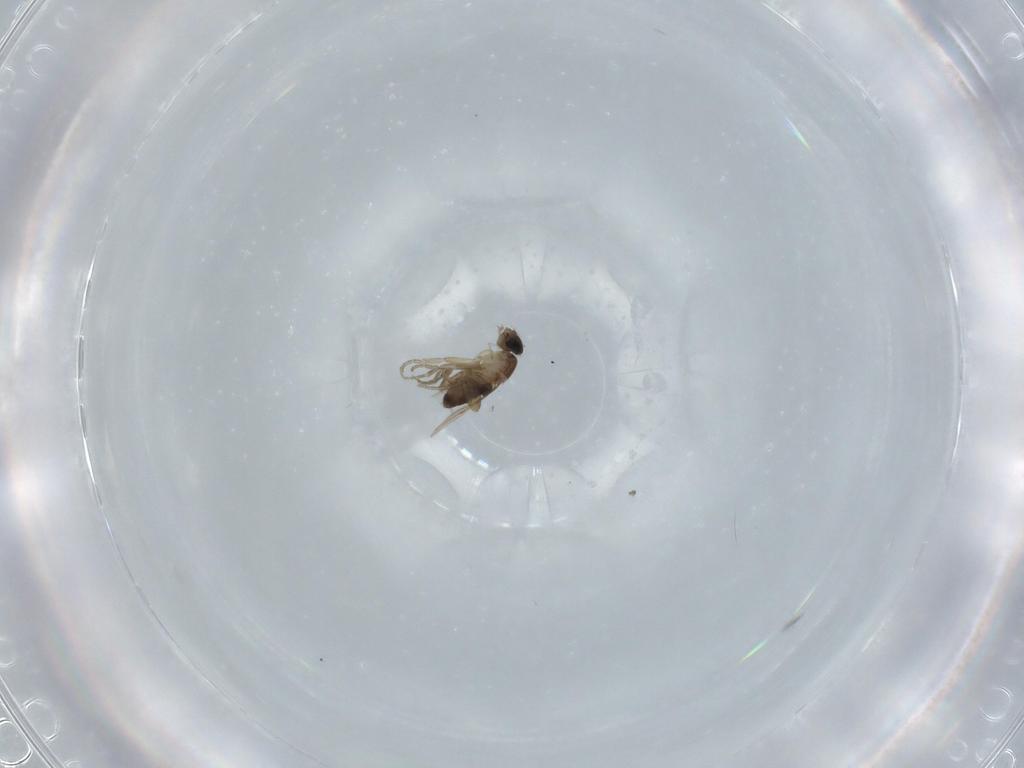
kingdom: Animalia
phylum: Arthropoda
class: Insecta
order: Diptera
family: Phoridae
